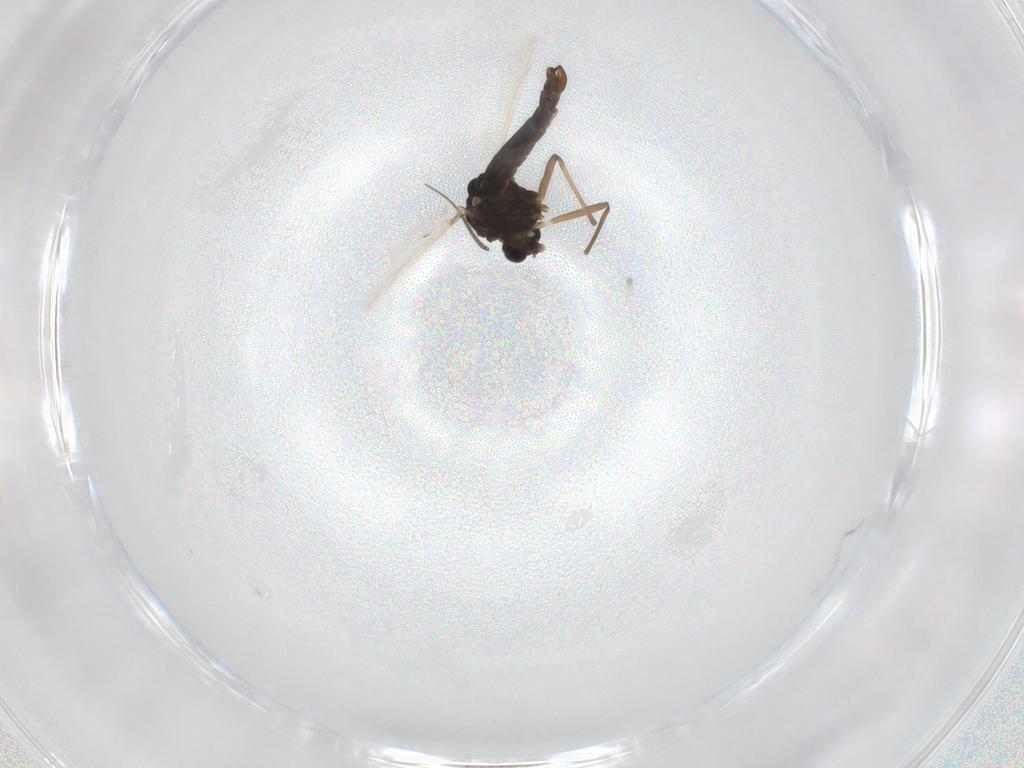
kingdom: Animalia
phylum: Arthropoda
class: Insecta
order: Diptera
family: Chironomidae
